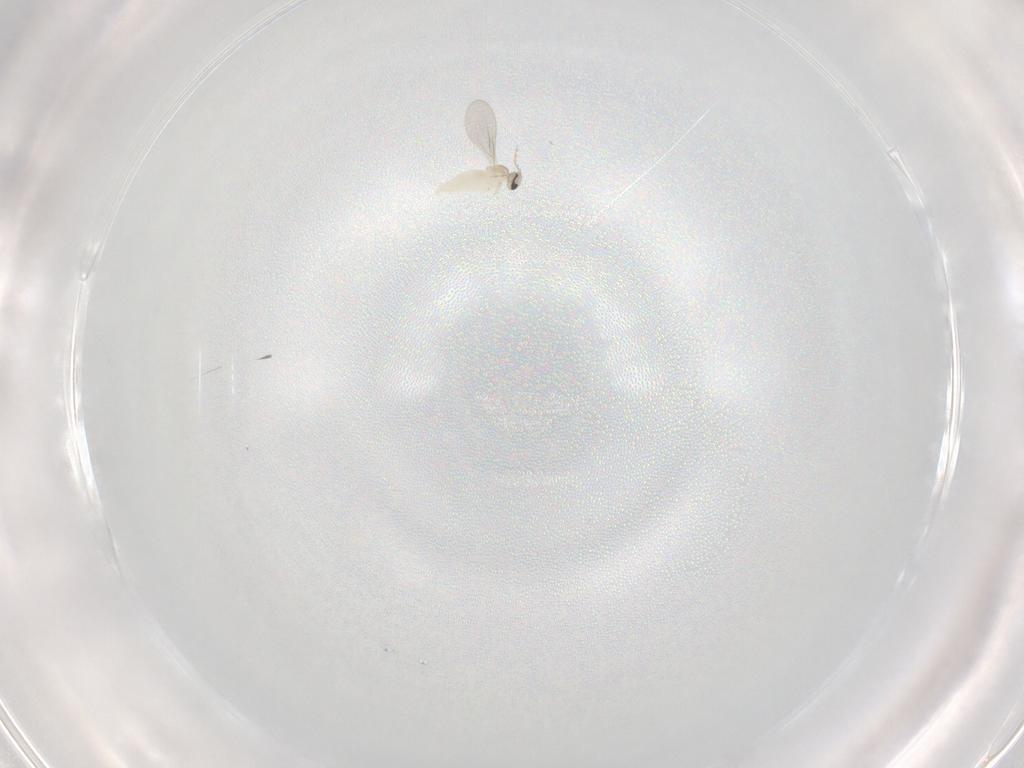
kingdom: Animalia
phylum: Arthropoda
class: Insecta
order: Diptera
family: Cecidomyiidae
